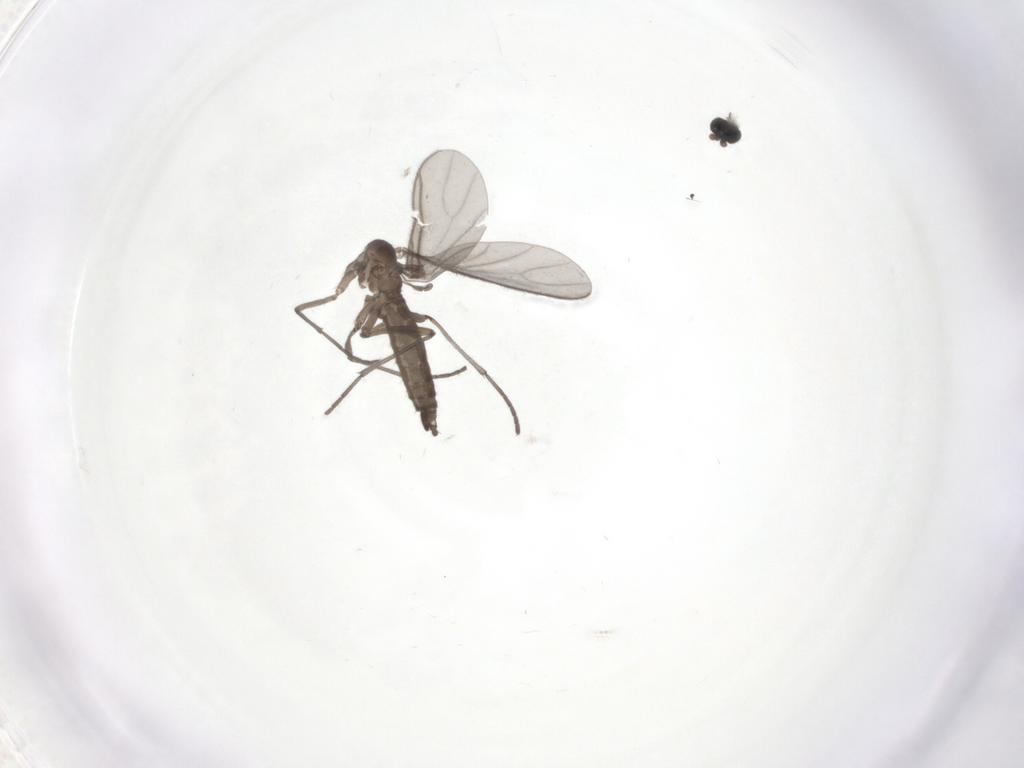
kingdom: Animalia
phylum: Arthropoda
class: Insecta
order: Diptera
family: Sciaridae
